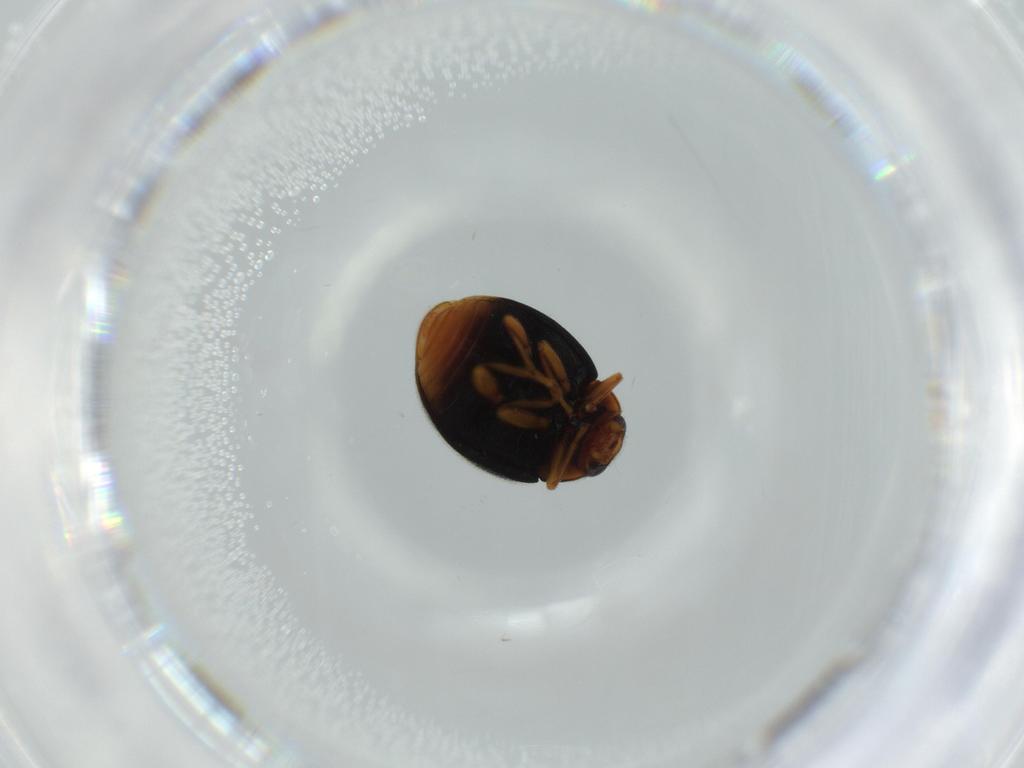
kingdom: Animalia
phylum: Arthropoda
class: Insecta
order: Coleoptera
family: Coccinellidae
